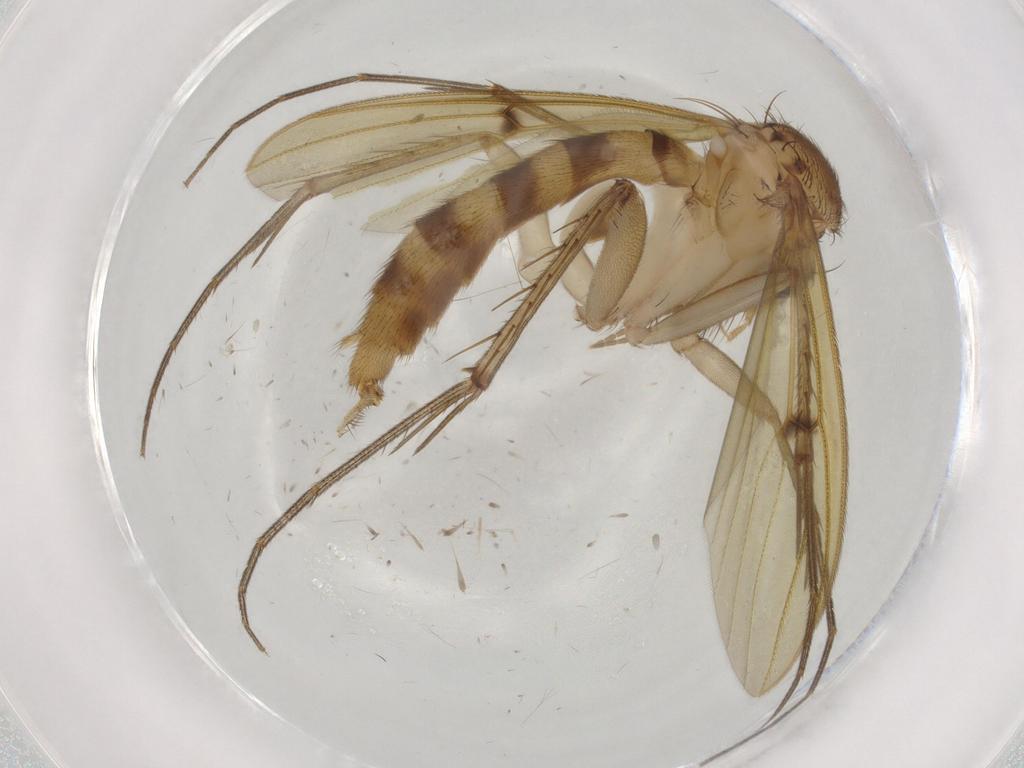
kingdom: Animalia
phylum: Arthropoda
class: Insecta
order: Diptera
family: Mycetophilidae
